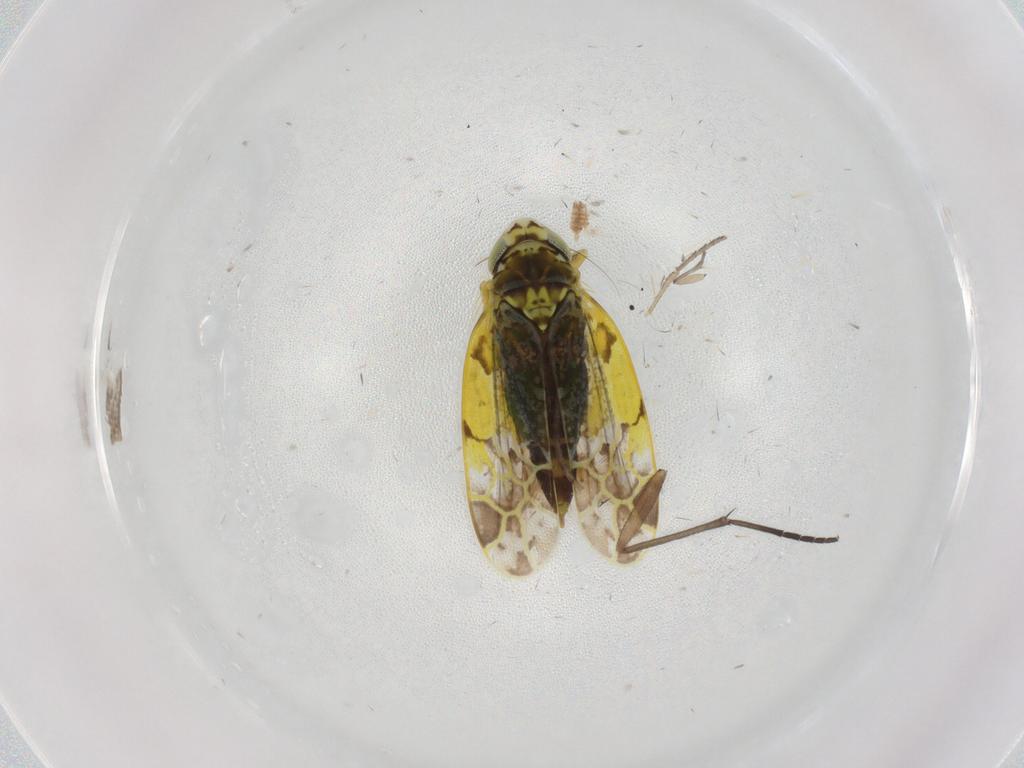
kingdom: Animalia
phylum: Arthropoda
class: Insecta
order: Hemiptera
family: Cicadellidae
